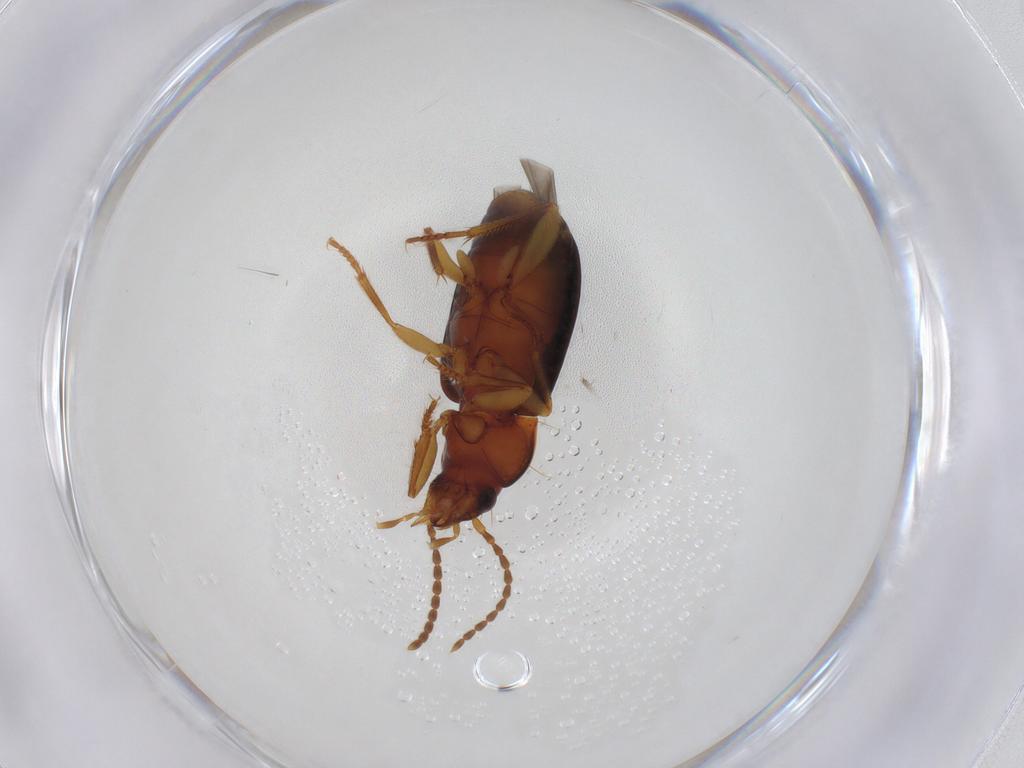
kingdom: Animalia
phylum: Arthropoda
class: Insecta
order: Coleoptera
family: Carabidae
